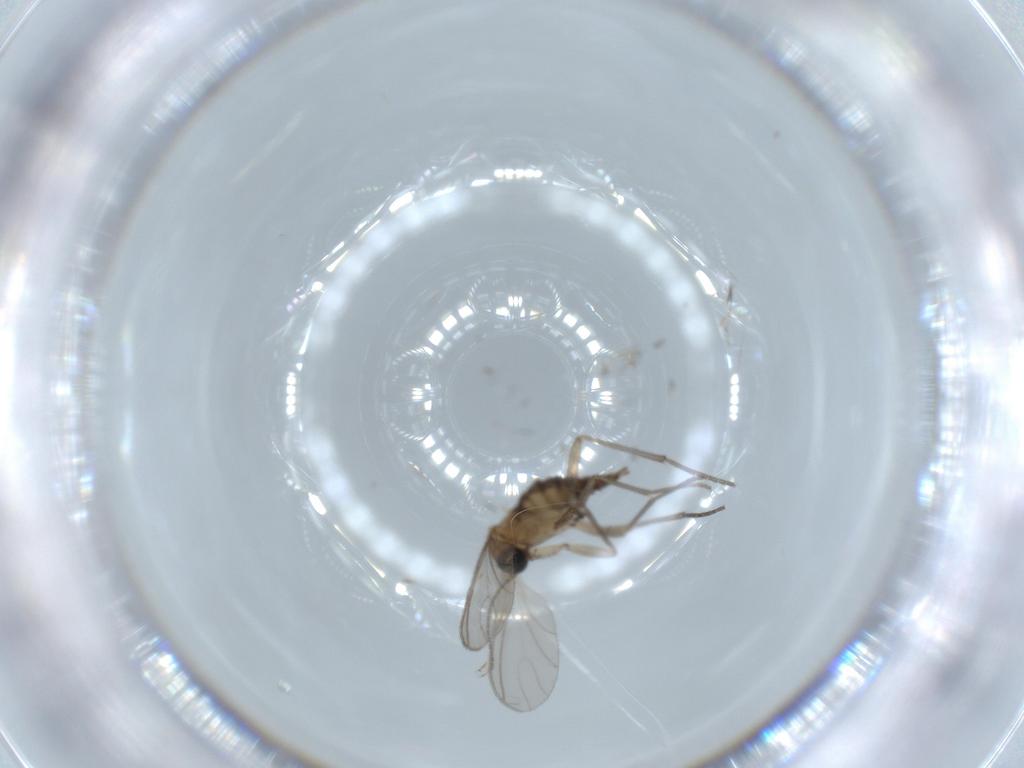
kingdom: Animalia
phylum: Arthropoda
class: Insecta
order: Diptera
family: Sciaridae
